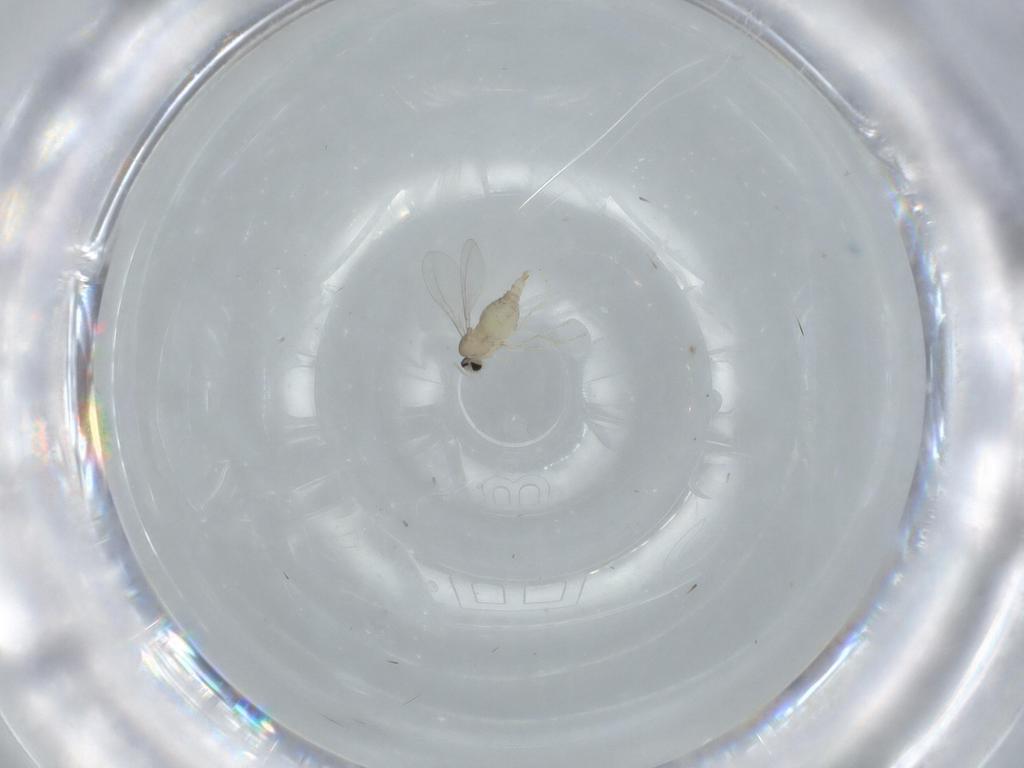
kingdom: Animalia
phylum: Arthropoda
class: Insecta
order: Diptera
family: Cecidomyiidae
